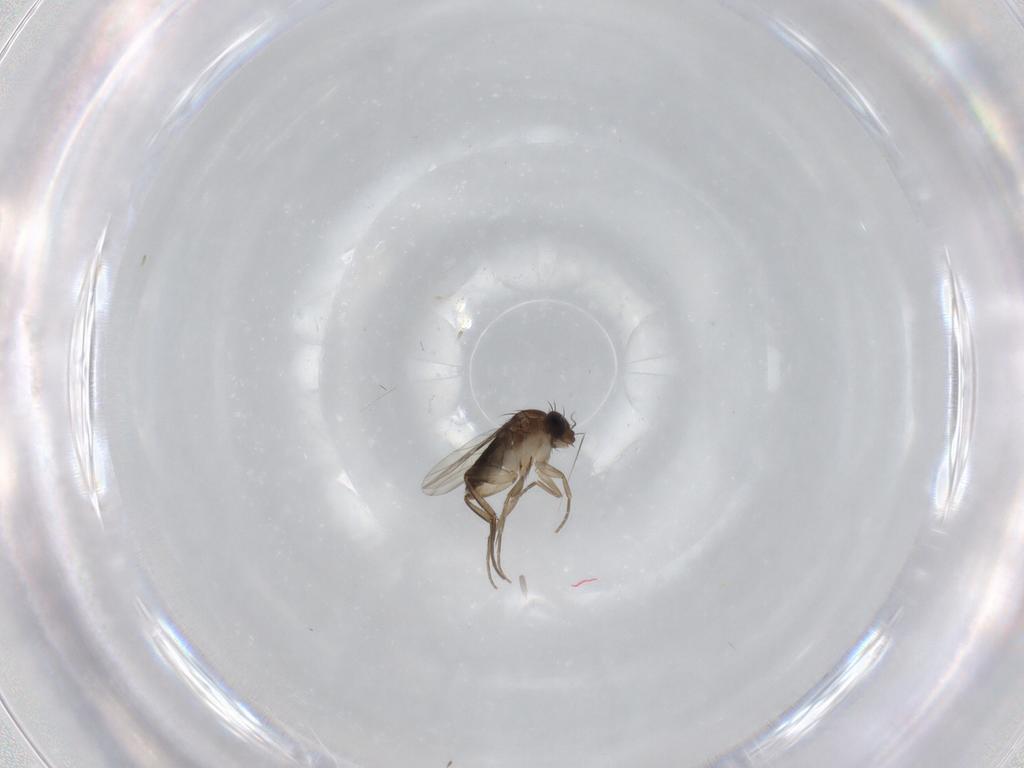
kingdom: Animalia
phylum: Arthropoda
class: Insecta
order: Diptera
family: Phoridae
